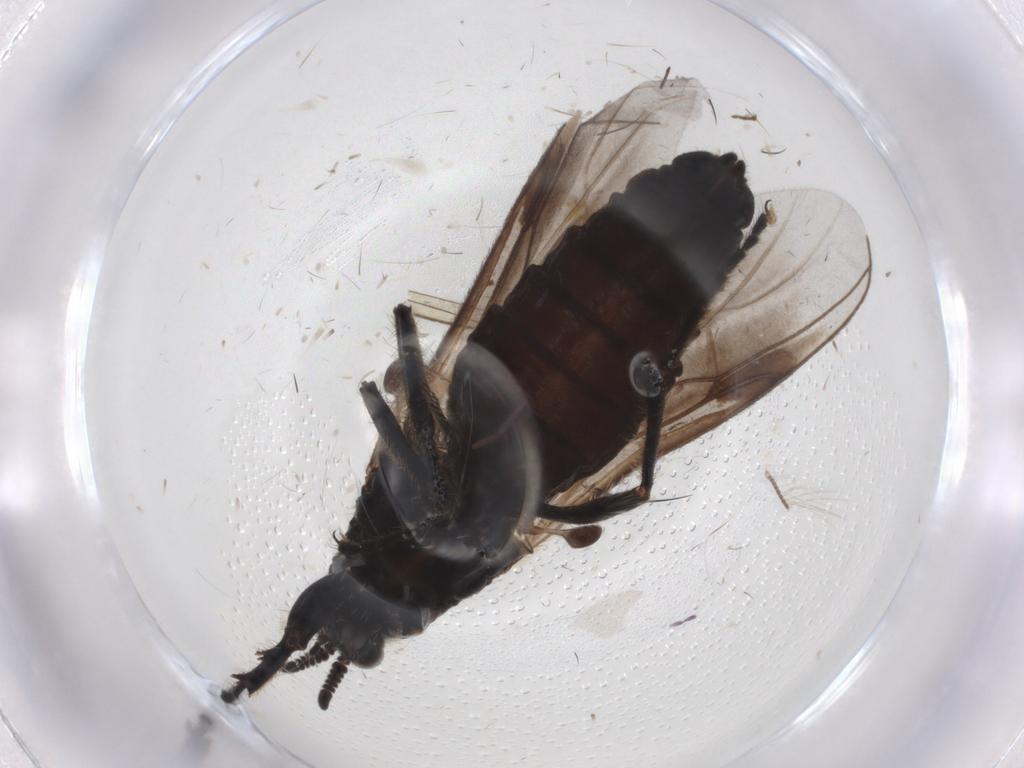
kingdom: Animalia
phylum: Arthropoda
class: Insecta
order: Diptera
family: Bibionidae
